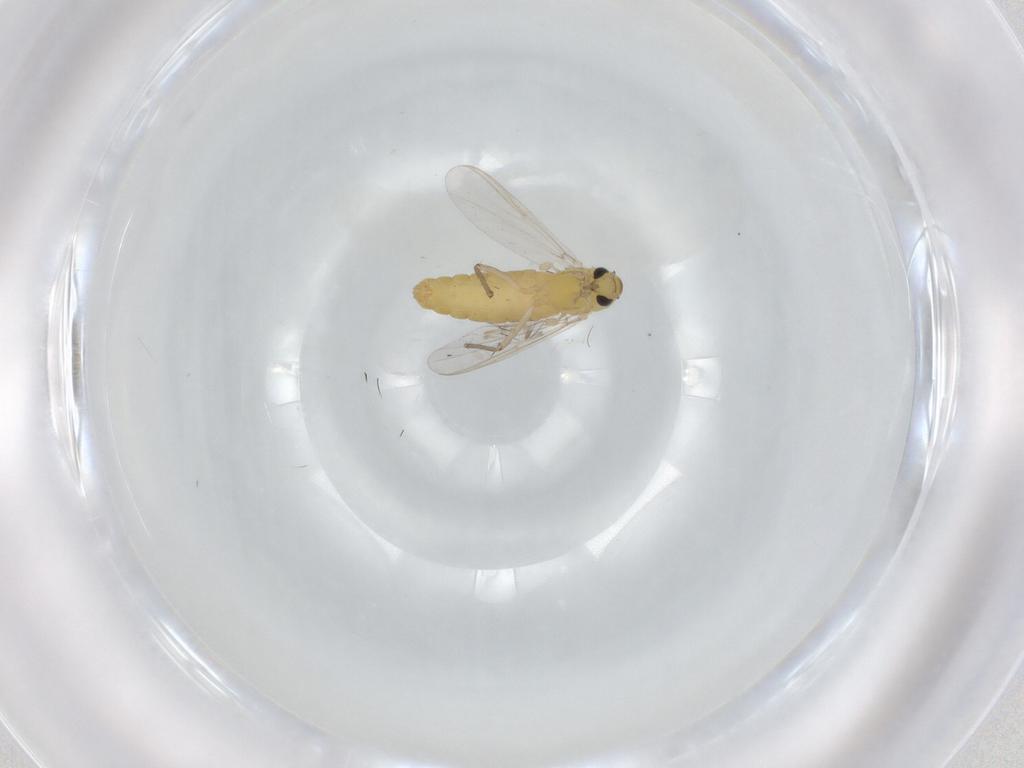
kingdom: Animalia
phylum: Arthropoda
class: Insecta
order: Diptera
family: Chironomidae
